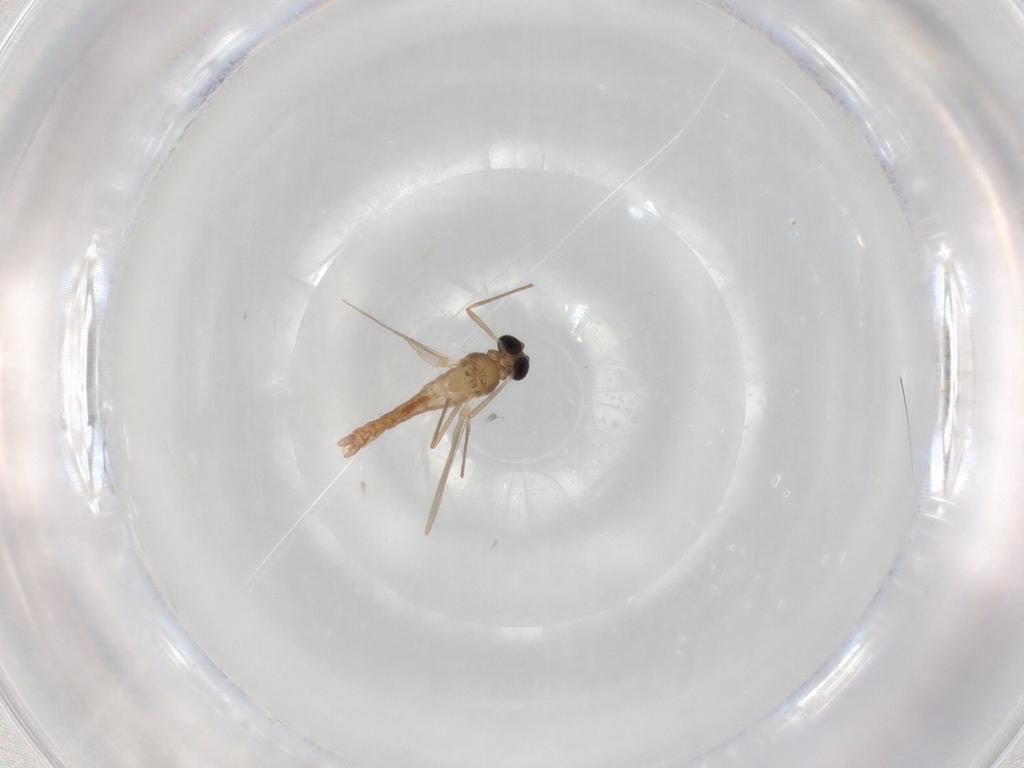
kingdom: Animalia
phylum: Arthropoda
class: Insecta
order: Diptera
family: Chironomidae
